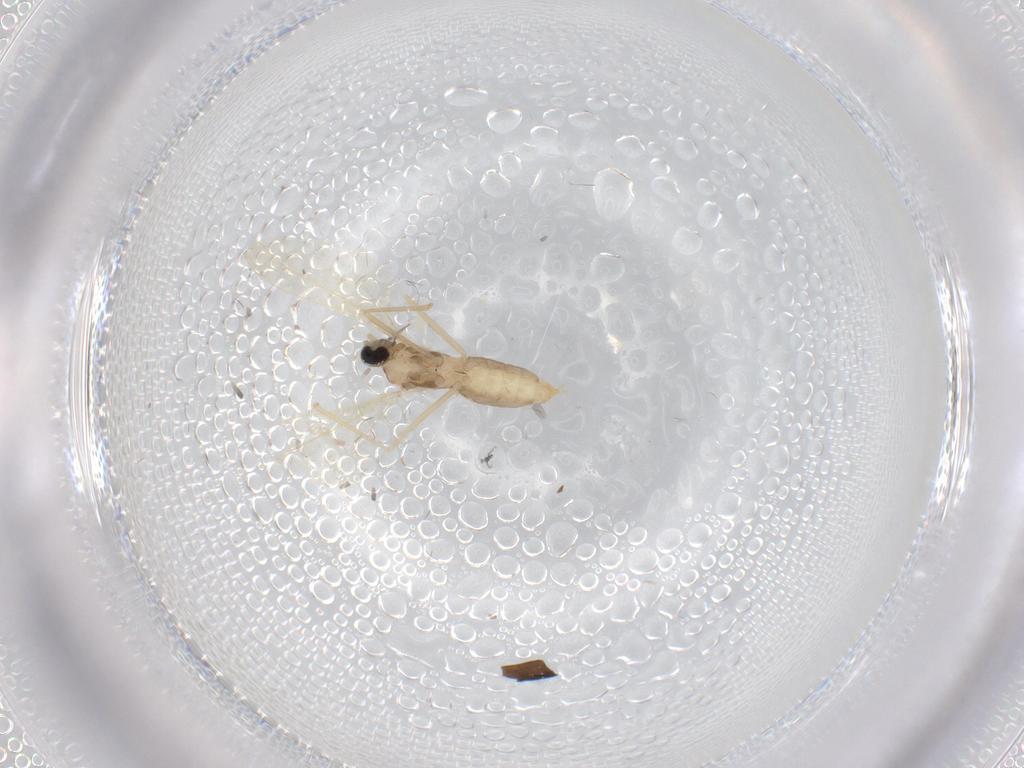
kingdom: Animalia
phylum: Arthropoda
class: Insecta
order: Diptera
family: Cecidomyiidae
